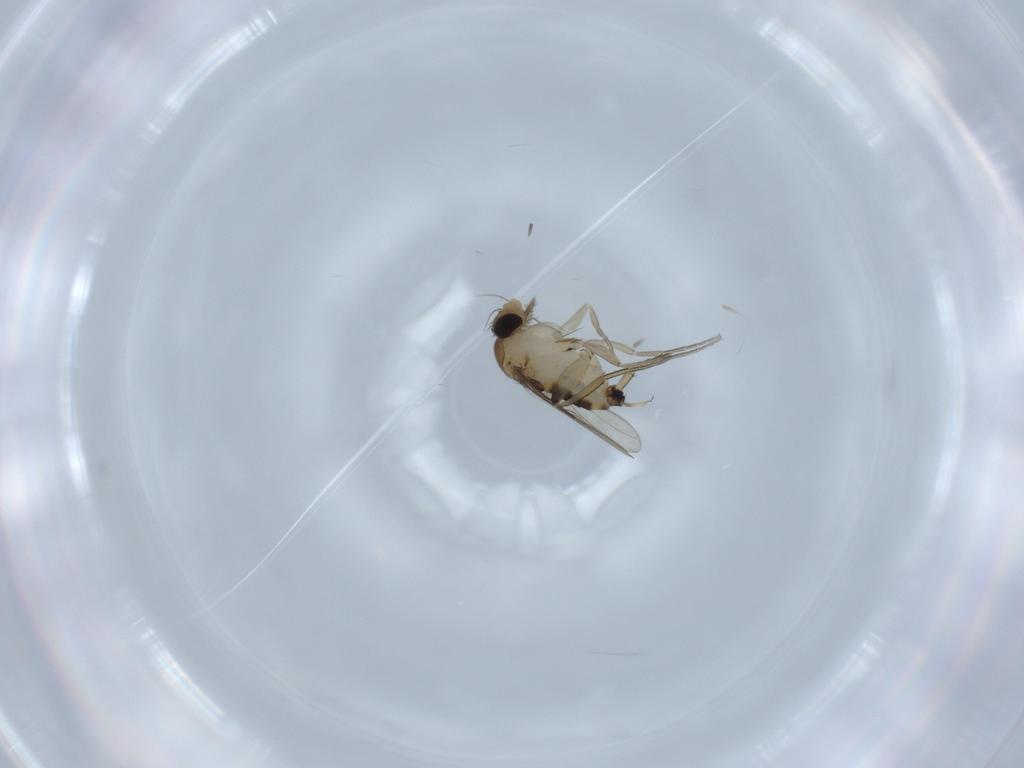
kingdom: Animalia
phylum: Arthropoda
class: Insecta
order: Diptera
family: Phoridae
